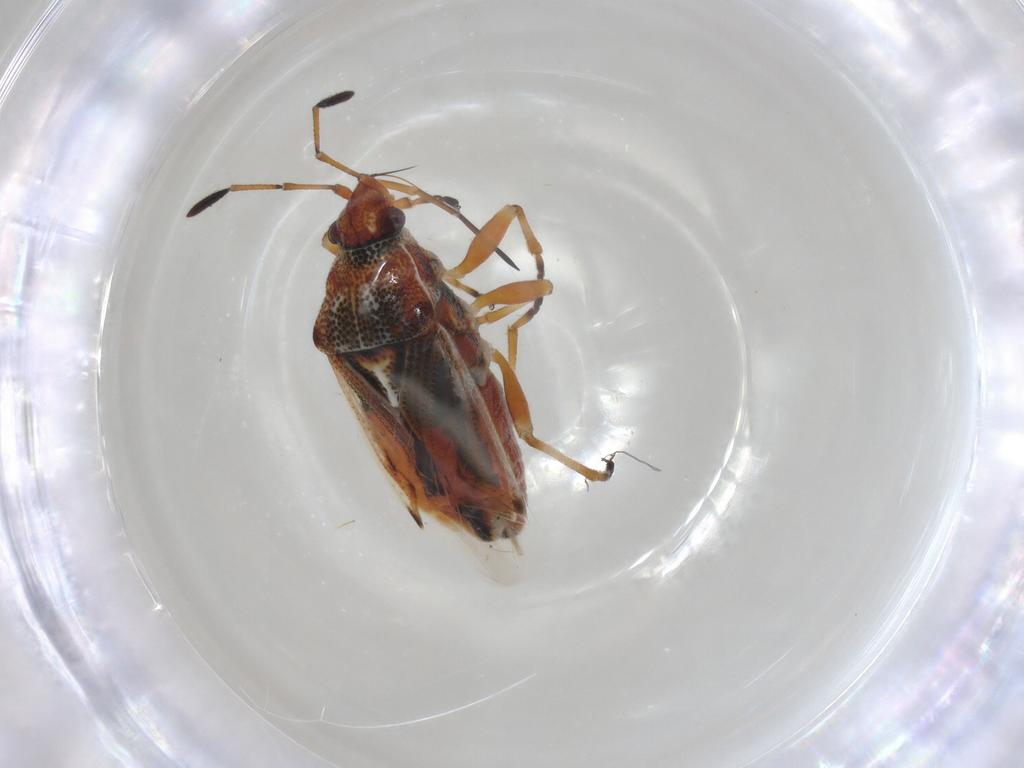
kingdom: Animalia
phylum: Arthropoda
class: Insecta
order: Hemiptera
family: Lygaeidae
